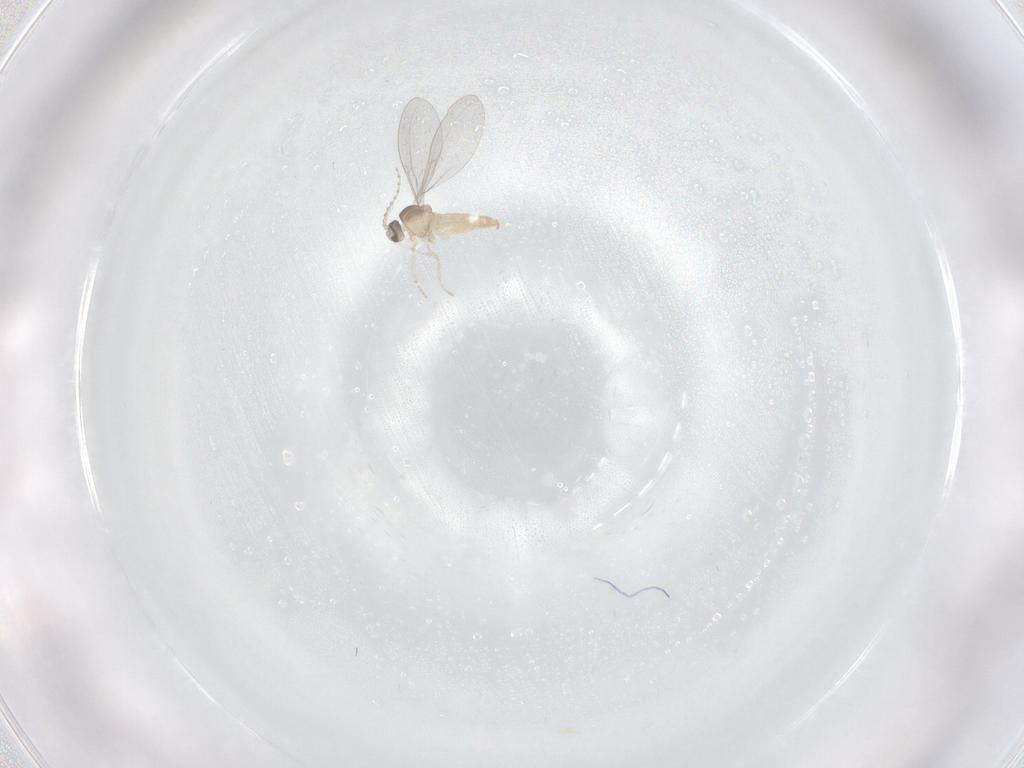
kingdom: Animalia
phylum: Arthropoda
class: Insecta
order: Diptera
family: Cecidomyiidae
